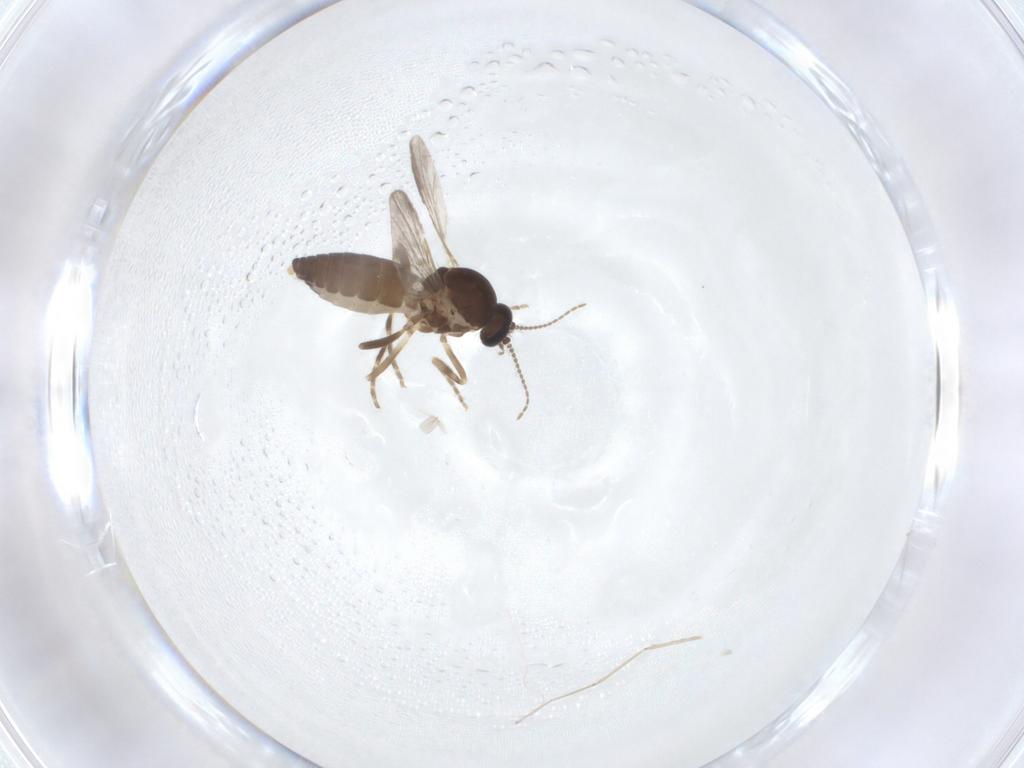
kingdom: Animalia
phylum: Arthropoda
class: Insecta
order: Diptera
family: Ceratopogonidae
